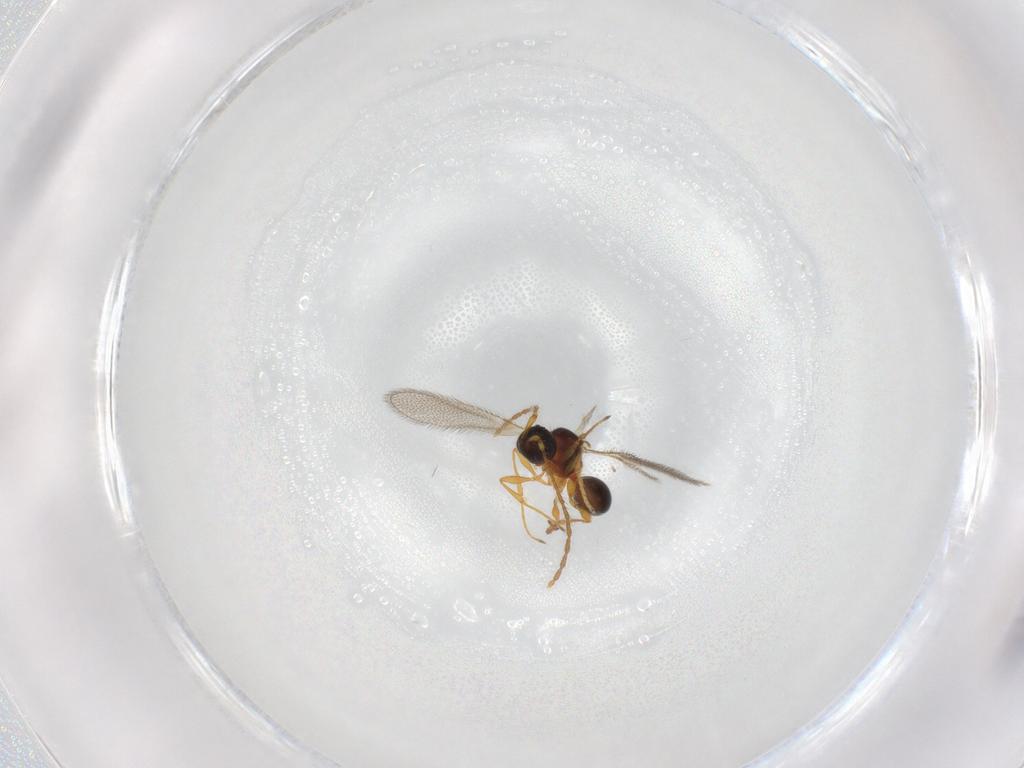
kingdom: Animalia
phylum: Arthropoda
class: Insecta
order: Hymenoptera
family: Diapriidae
